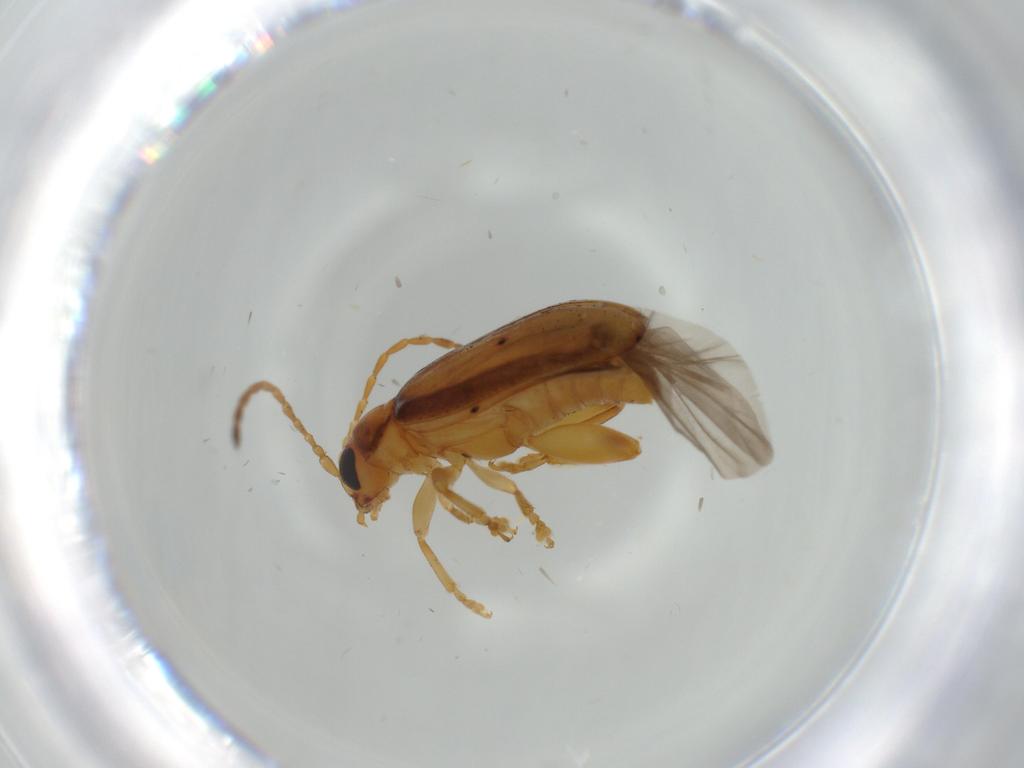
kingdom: Animalia
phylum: Arthropoda
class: Insecta
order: Coleoptera
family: Chrysomelidae
